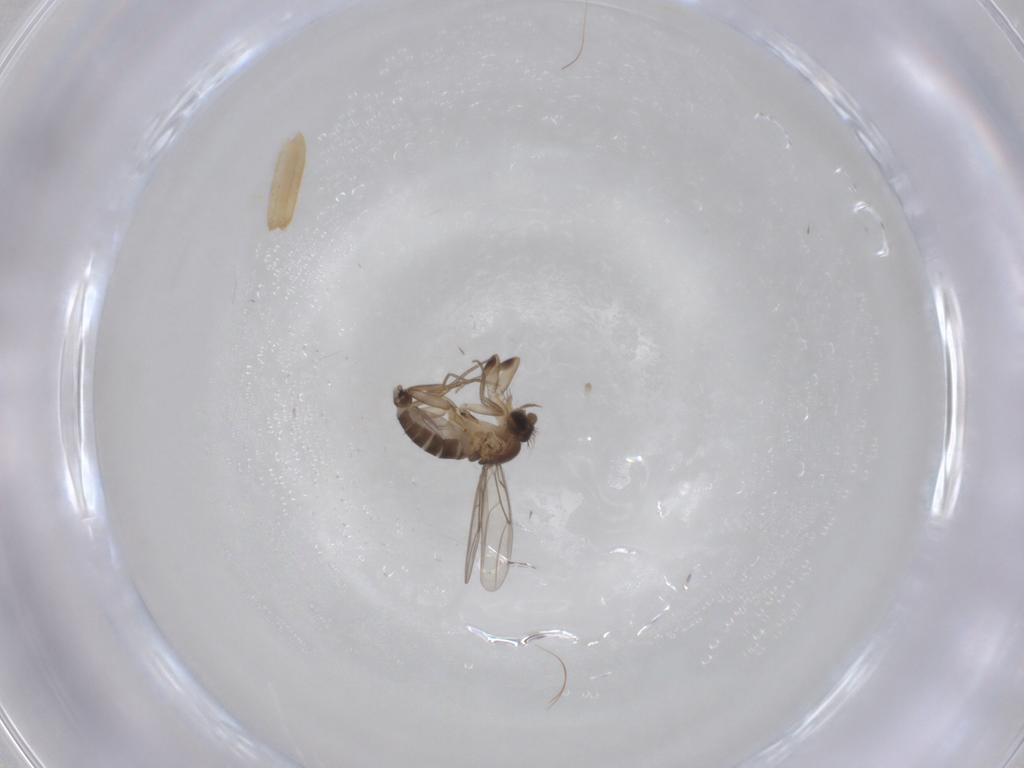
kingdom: Animalia
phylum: Arthropoda
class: Insecta
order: Diptera
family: Phoridae
